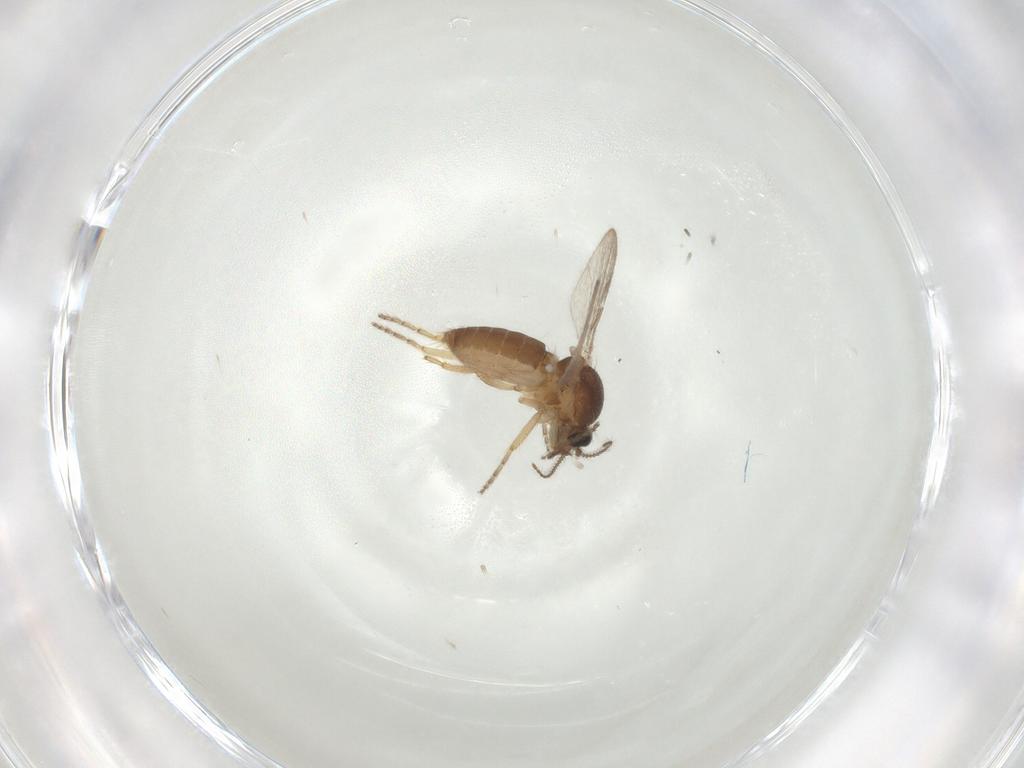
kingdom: Animalia
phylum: Arthropoda
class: Insecta
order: Diptera
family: Ceratopogonidae
